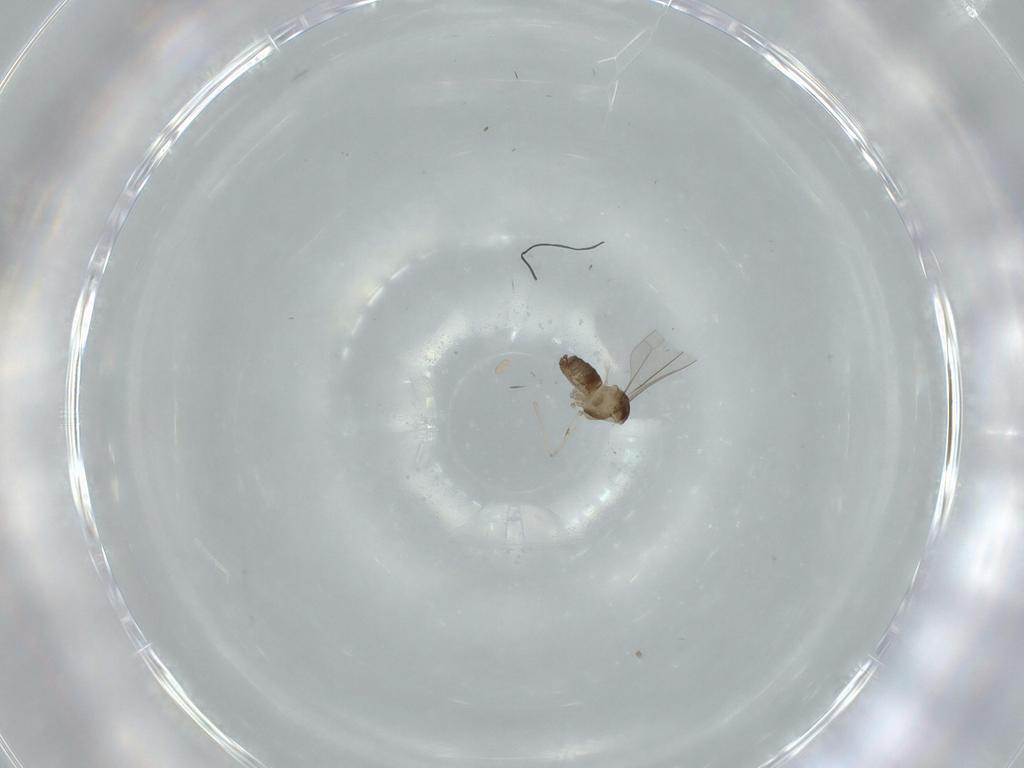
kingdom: Animalia
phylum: Arthropoda
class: Insecta
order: Diptera
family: Cecidomyiidae
